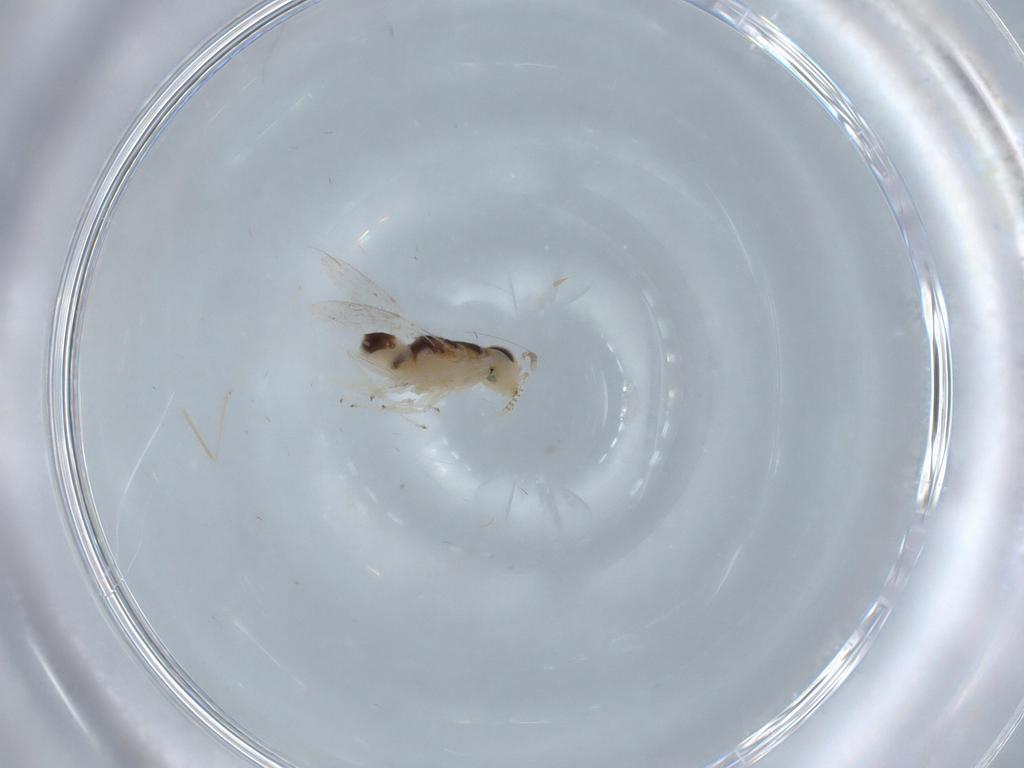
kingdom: Animalia
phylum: Arthropoda
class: Insecta
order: Hymenoptera
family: Encyrtidae
